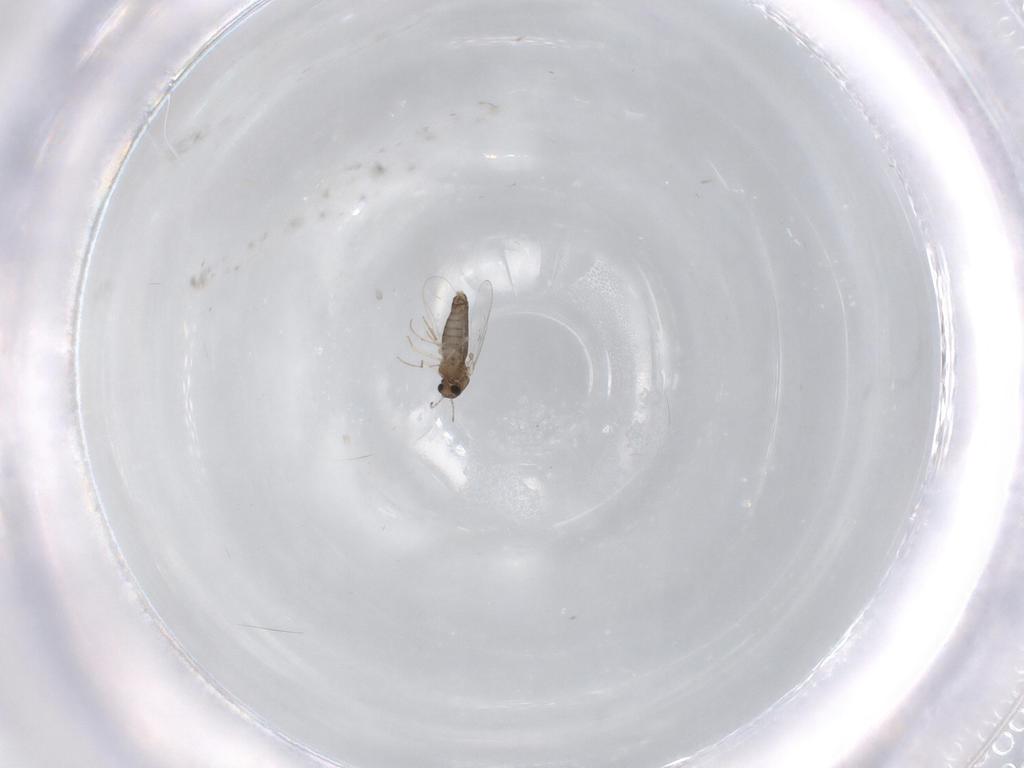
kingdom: Animalia
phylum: Arthropoda
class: Insecta
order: Diptera
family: Chironomidae
